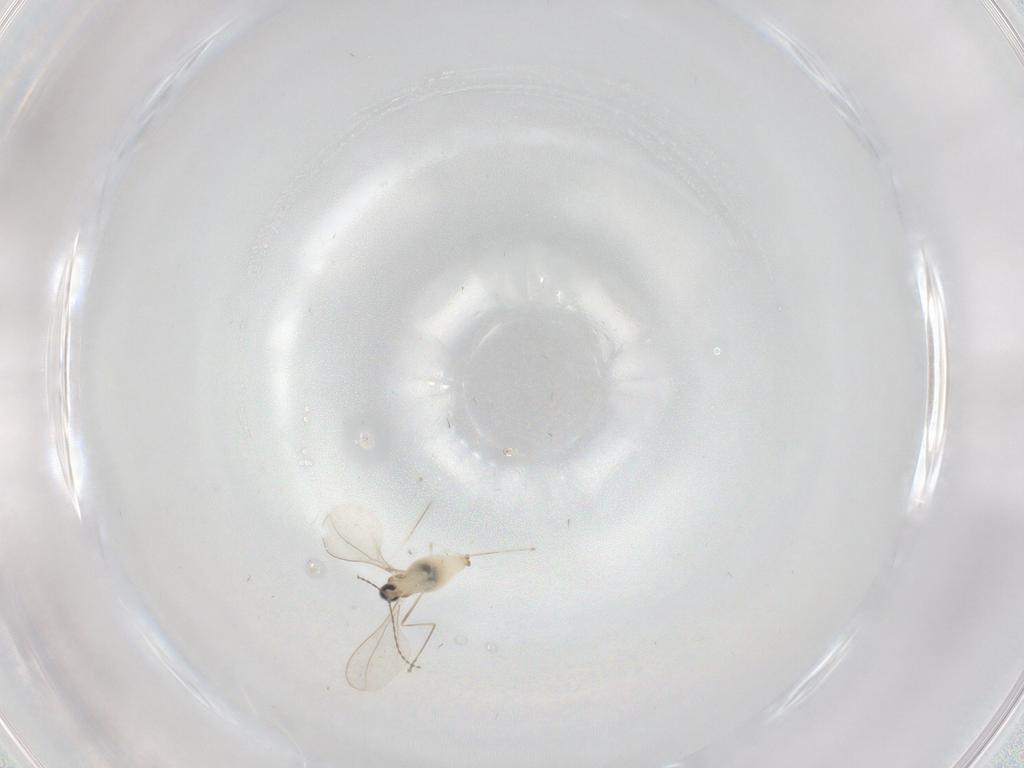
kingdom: Animalia
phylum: Arthropoda
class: Insecta
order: Diptera
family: Cecidomyiidae
